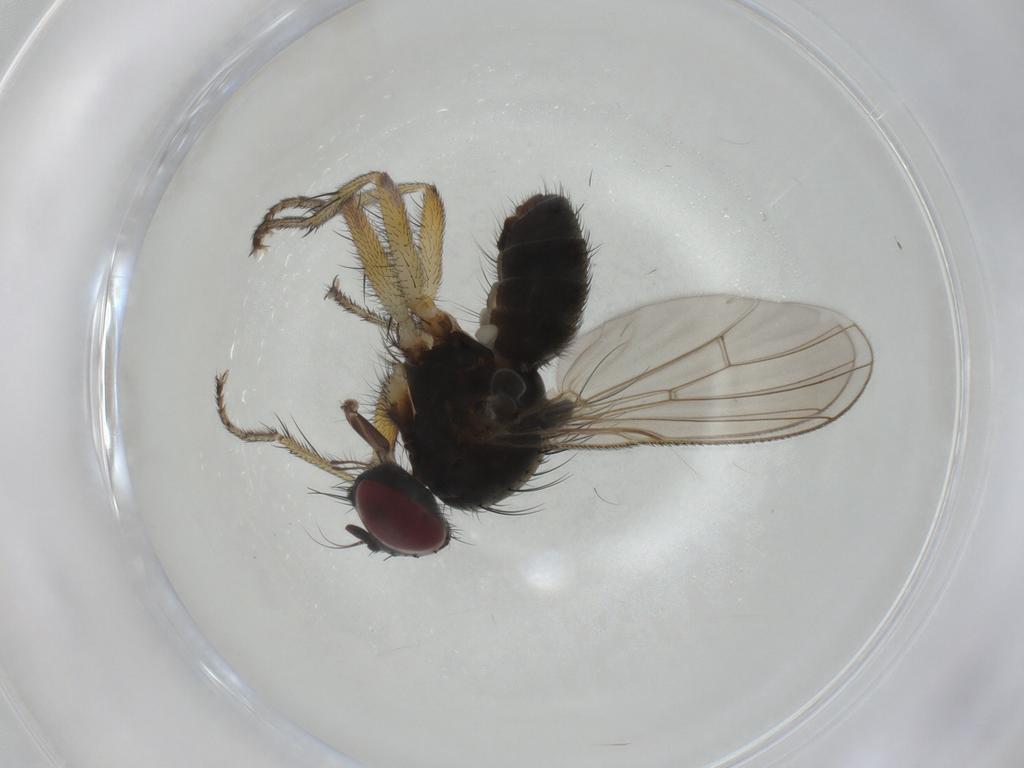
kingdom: Animalia
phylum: Arthropoda
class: Insecta
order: Diptera
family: Muscidae
